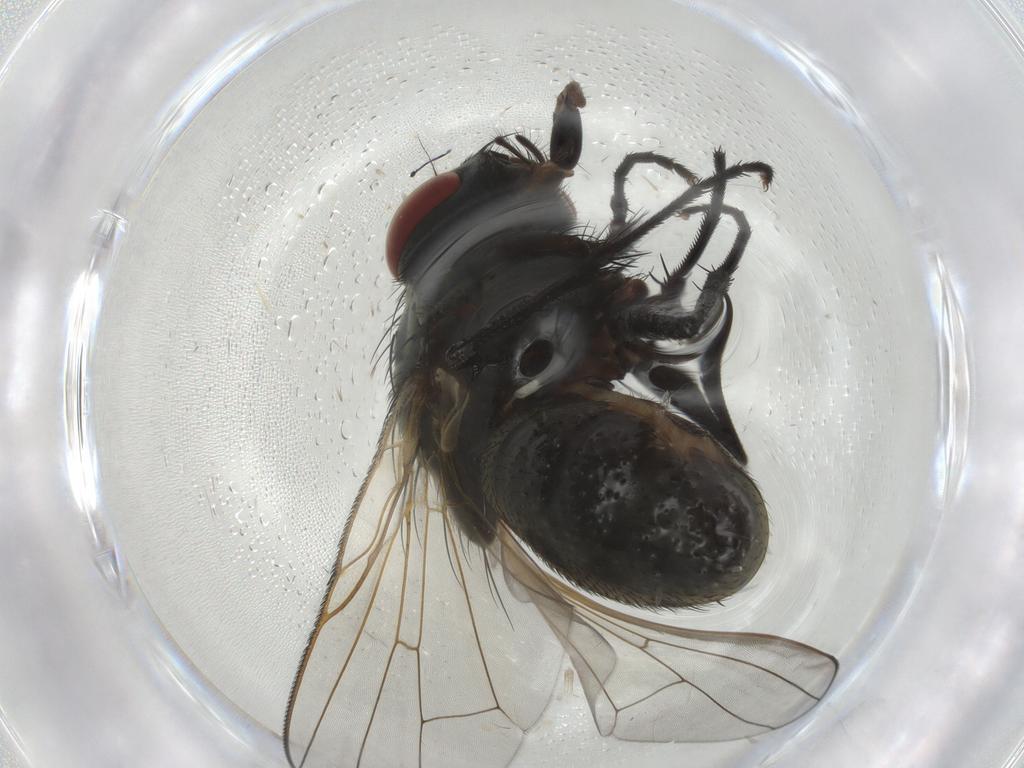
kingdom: Animalia
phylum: Arthropoda
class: Insecta
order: Diptera
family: Muscidae
